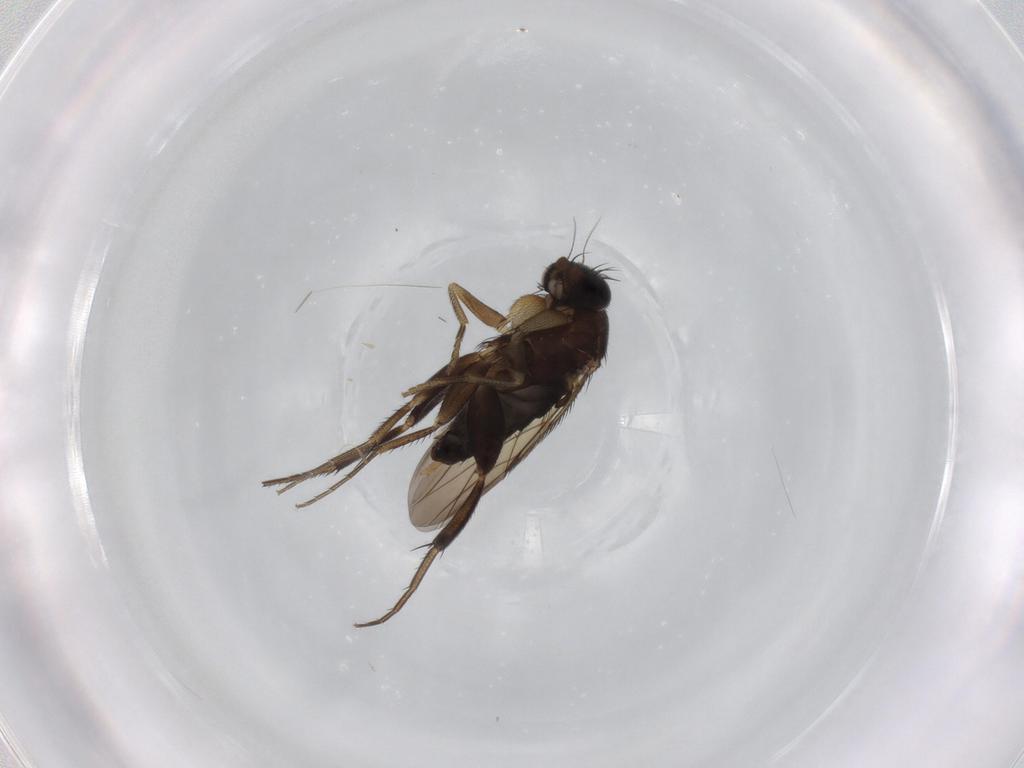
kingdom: Animalia
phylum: Arthropoda
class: Insecta
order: Diptera
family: Phoridae
